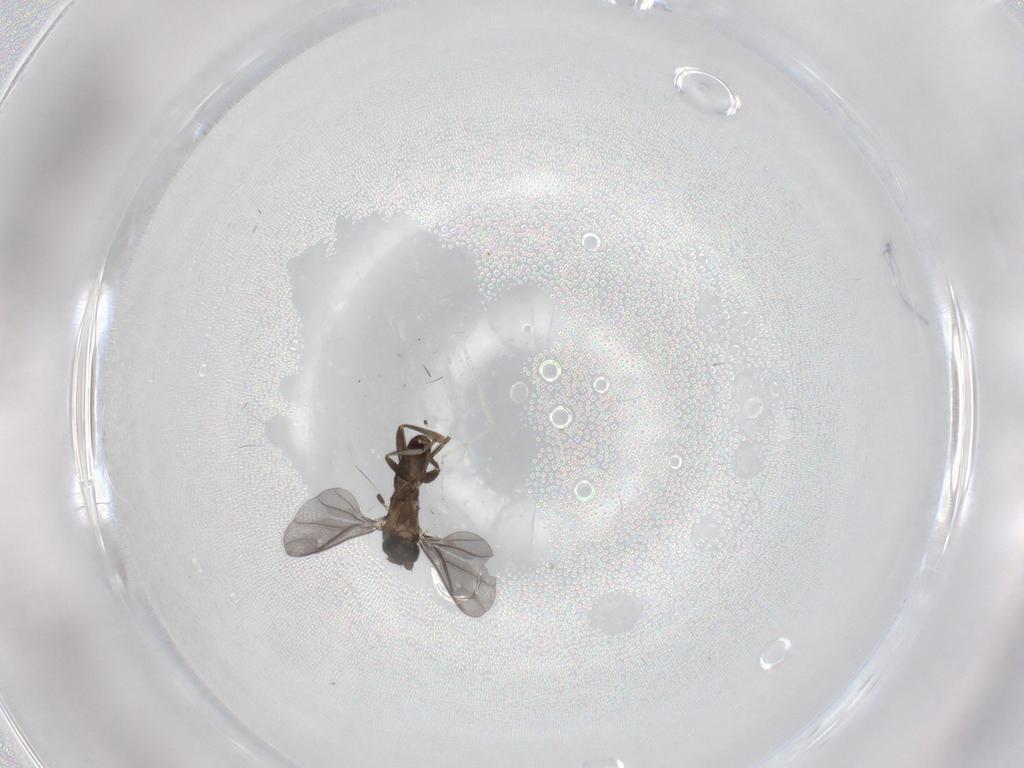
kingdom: Animalia
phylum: Arthropoda
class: Insecta
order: Diptera
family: Phoridae
